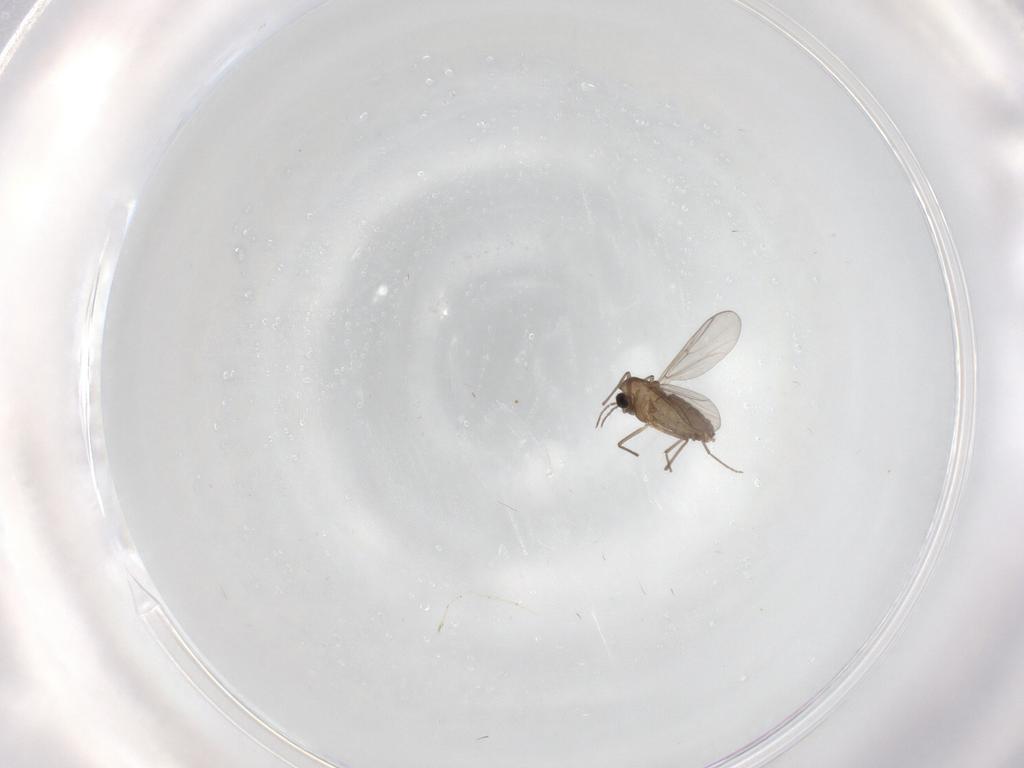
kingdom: Animalia
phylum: Arthropoda
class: Insecta
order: Diptera
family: Chironomidae
